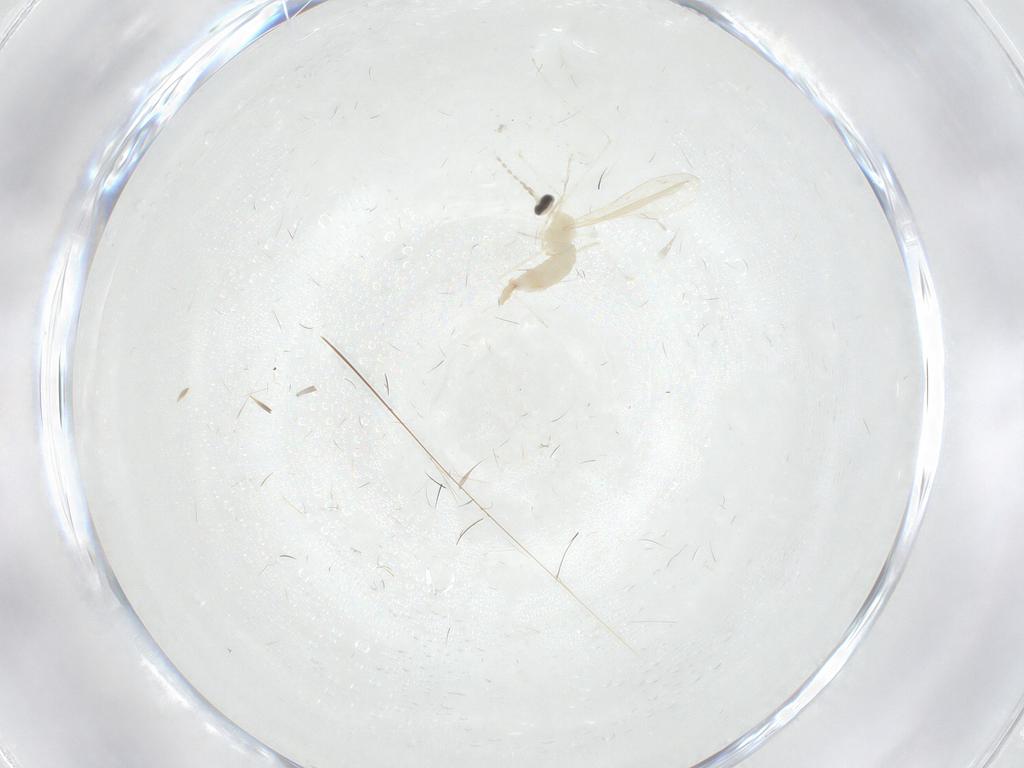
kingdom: Animalia
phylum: Arthropoda
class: Insecta
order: Diptera
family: Cecidomyiidae
